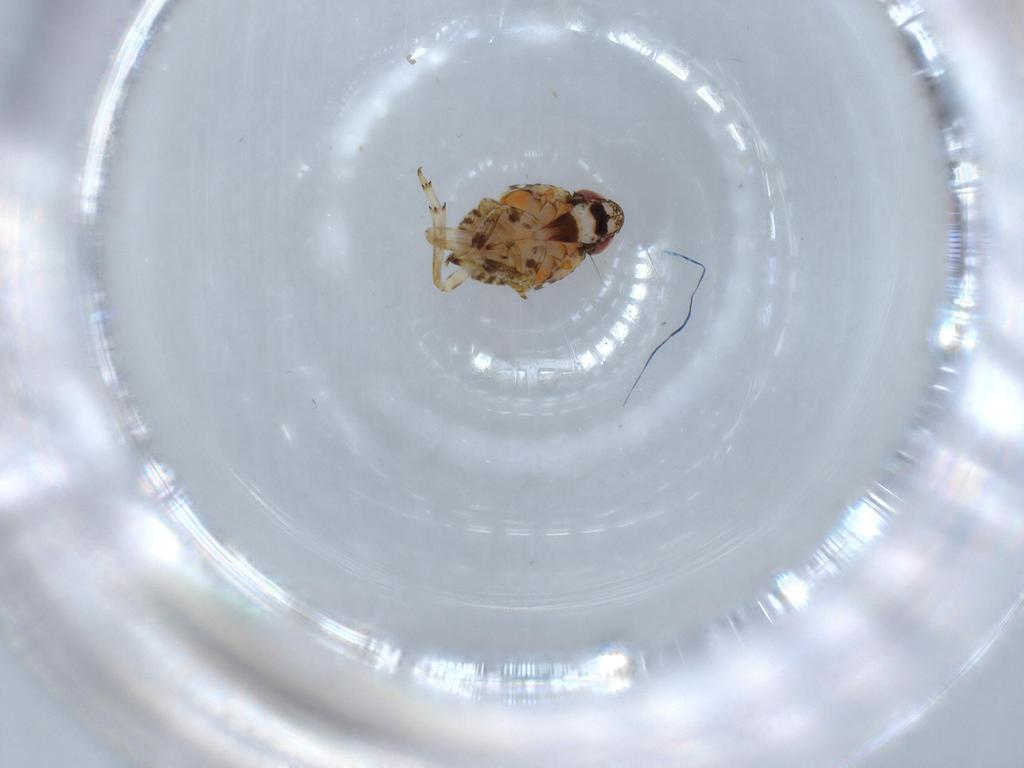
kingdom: Animalia
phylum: Arthropoda
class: Insecta
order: Hemiptera
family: Issidae
